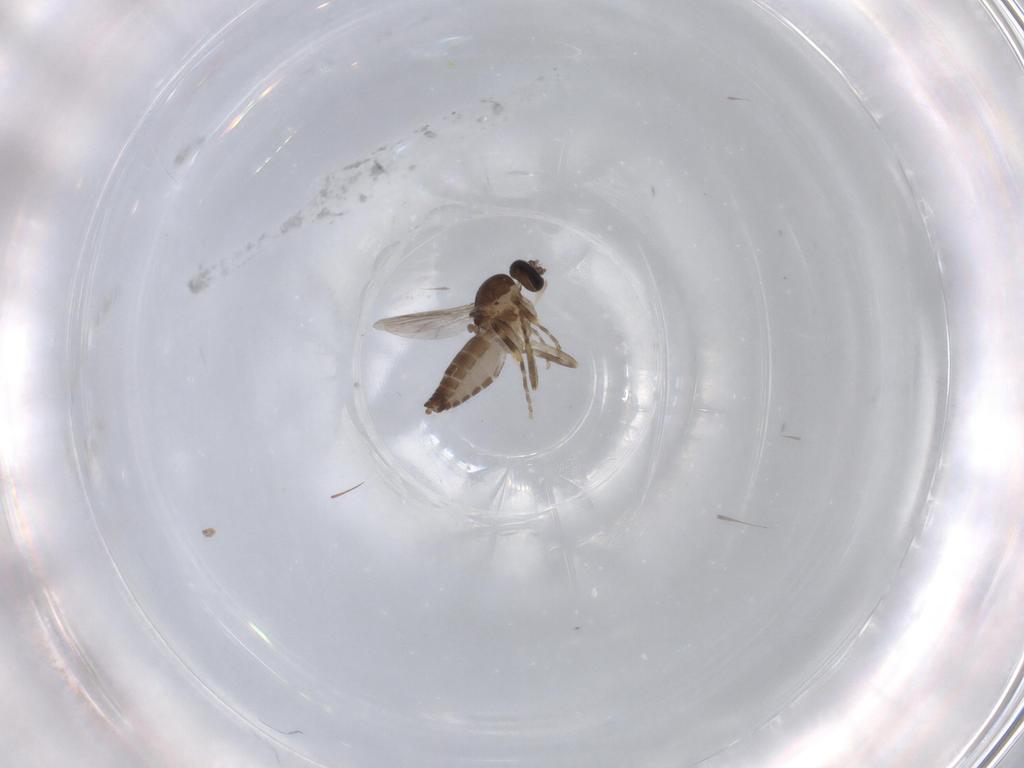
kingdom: Animalia
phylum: Arthropoda
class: Insecta
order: Diptera
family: Ceratopogonidae
